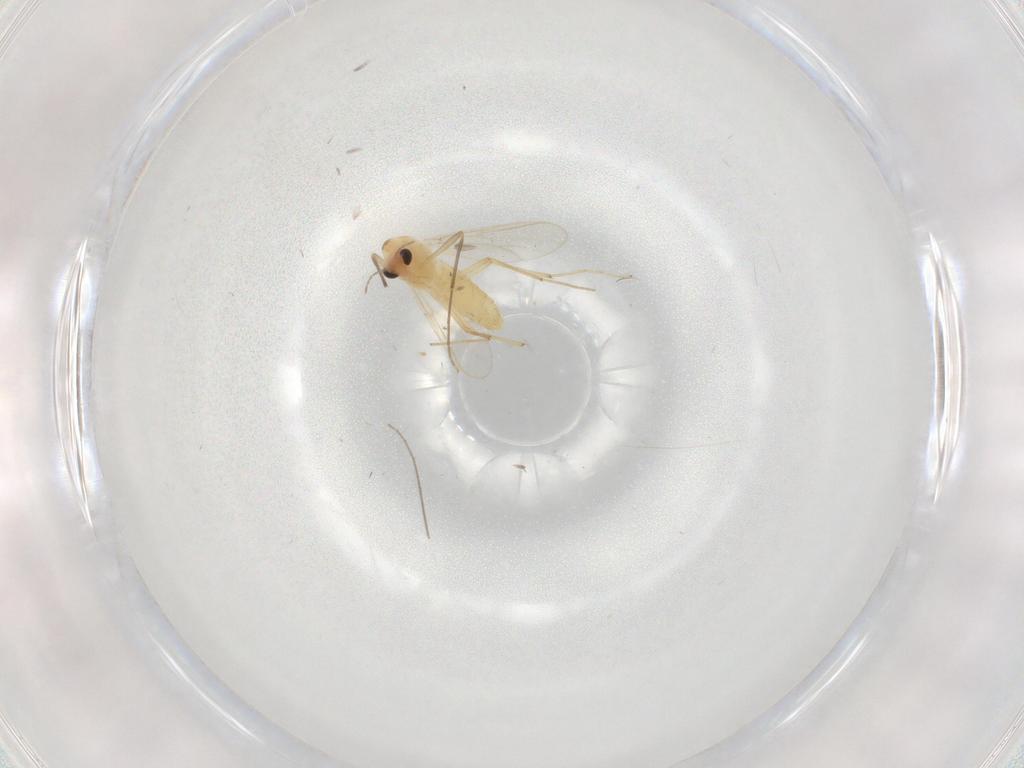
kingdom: Animalia
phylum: Arthropoda
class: Insecta
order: Diptera
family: Chironomidae
